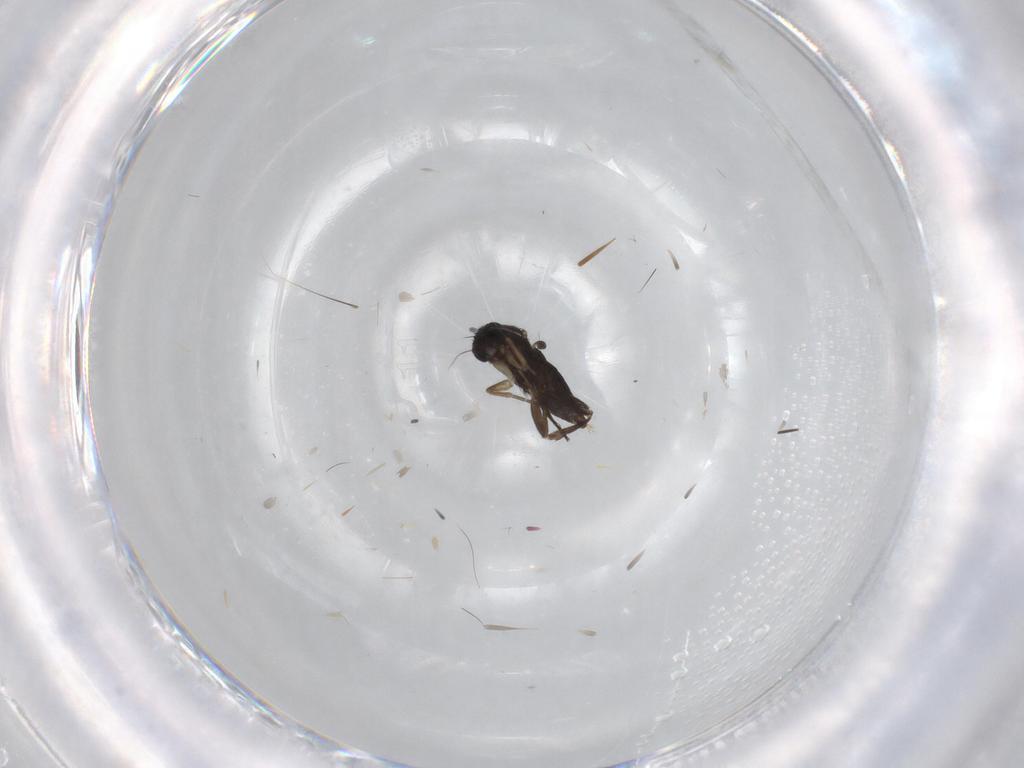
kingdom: Animalia
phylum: Arthropoda
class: Insecta
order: Diptera
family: Phoridae
